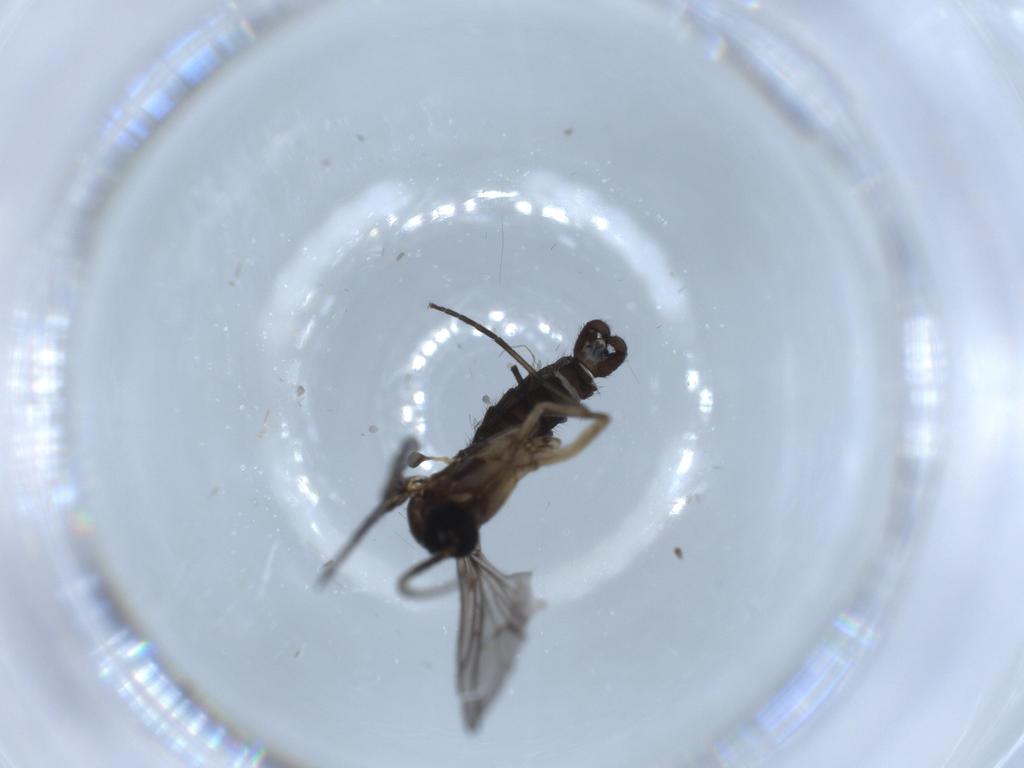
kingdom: Animalia
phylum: Arthropoda
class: Insecta
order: Diptera
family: Sciaridae
